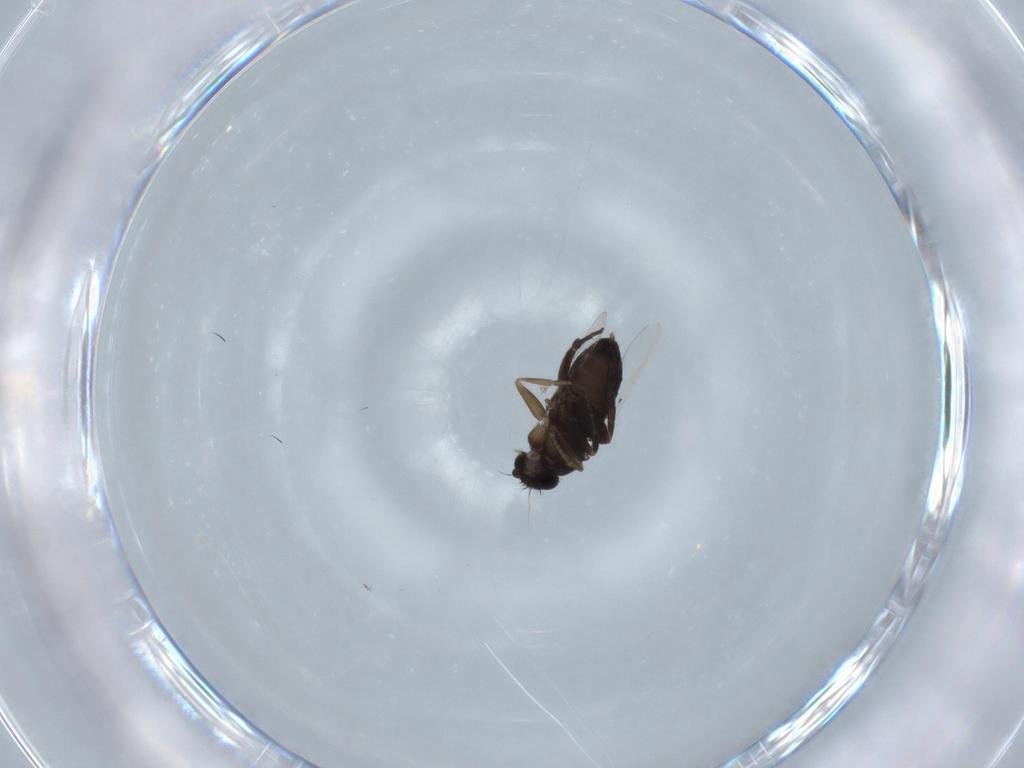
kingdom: Animalia
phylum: Arthropoda
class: Insecta
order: Diptera
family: Phoridae
